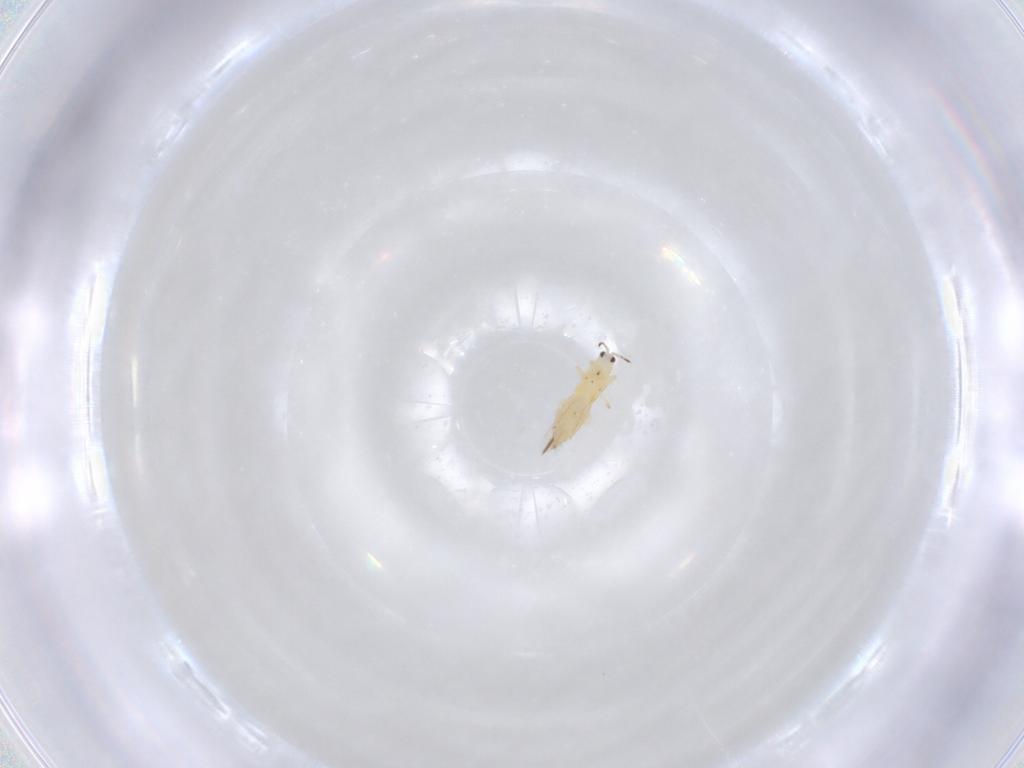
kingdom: Animalia
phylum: Arthropoda
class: Insecta
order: Thysanoptera
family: Thripidae
